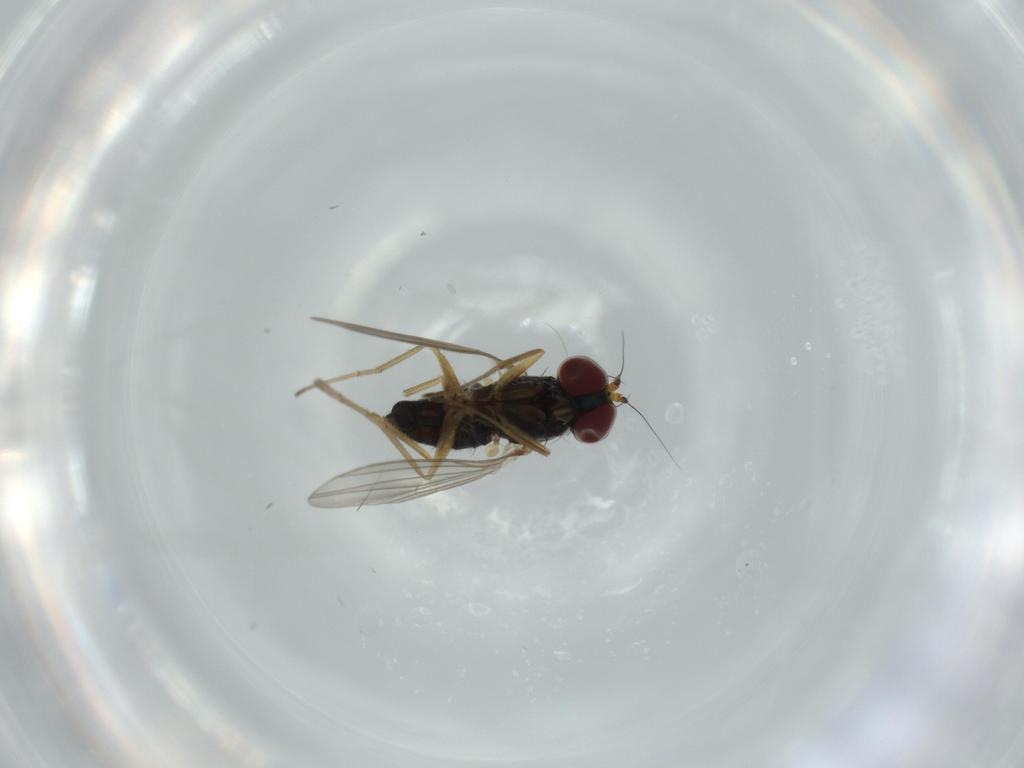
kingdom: Animalia
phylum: Arthropoda
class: Insecta
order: Diptera
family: Dolichopodidae
